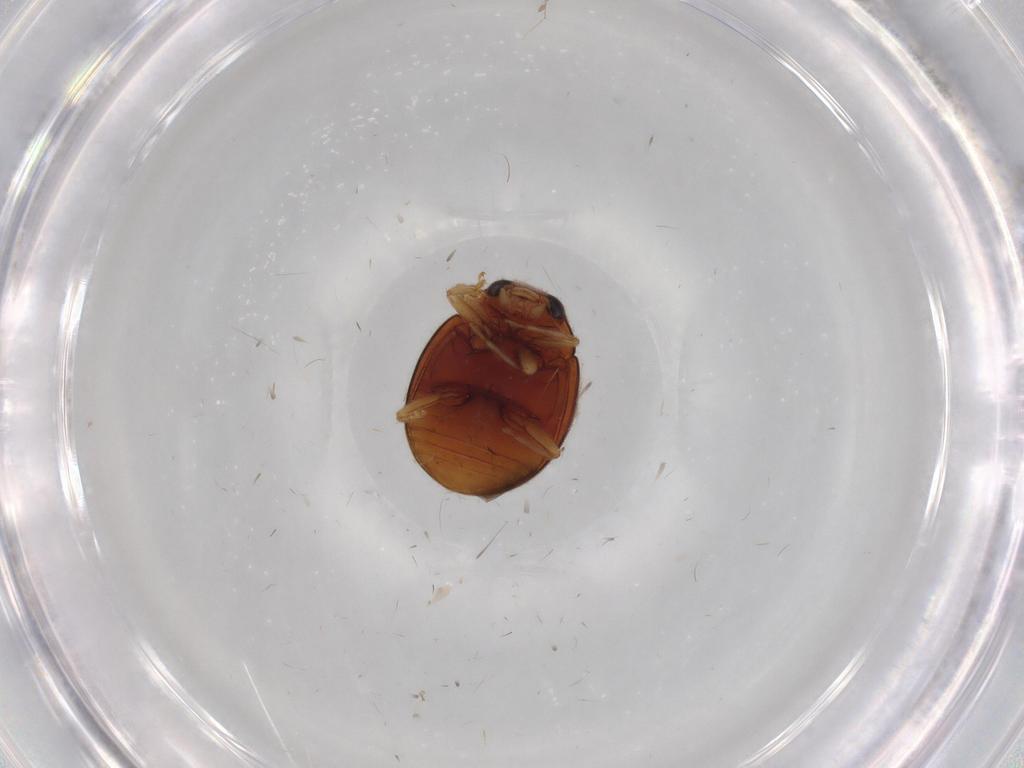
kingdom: Animalia
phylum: Arthropoda
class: Insecta
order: Coleoptera
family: Coccinellidae
